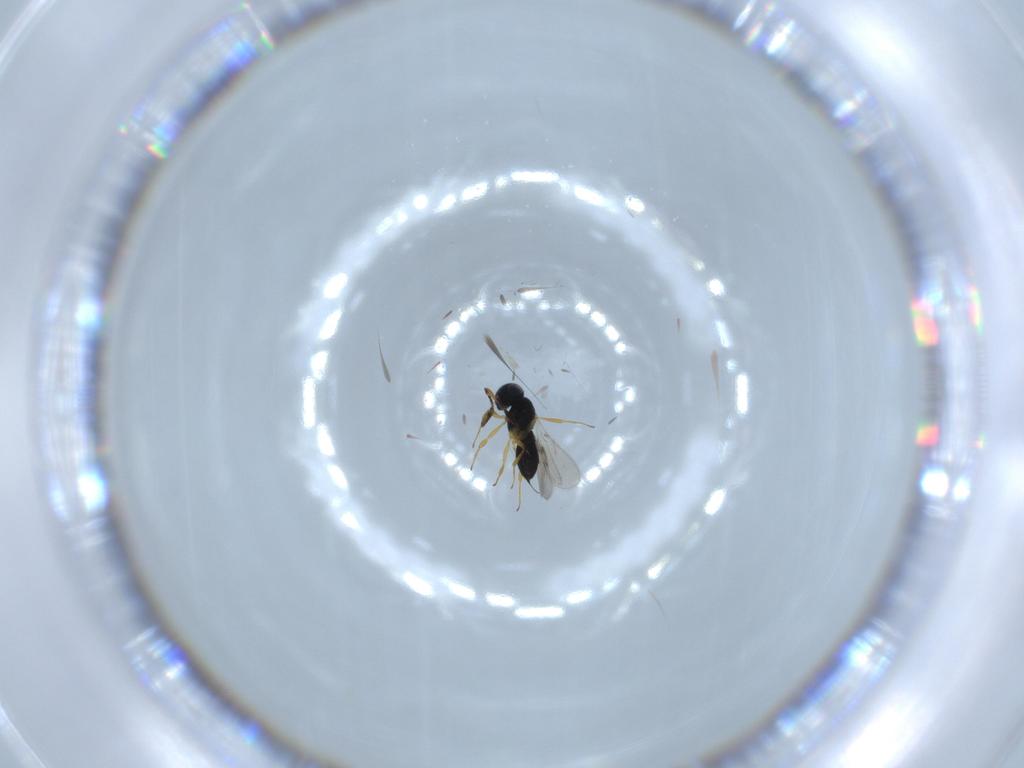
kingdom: Animalia
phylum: Arthropoda
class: Insecta
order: Hymenoptera
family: Scelionidae
